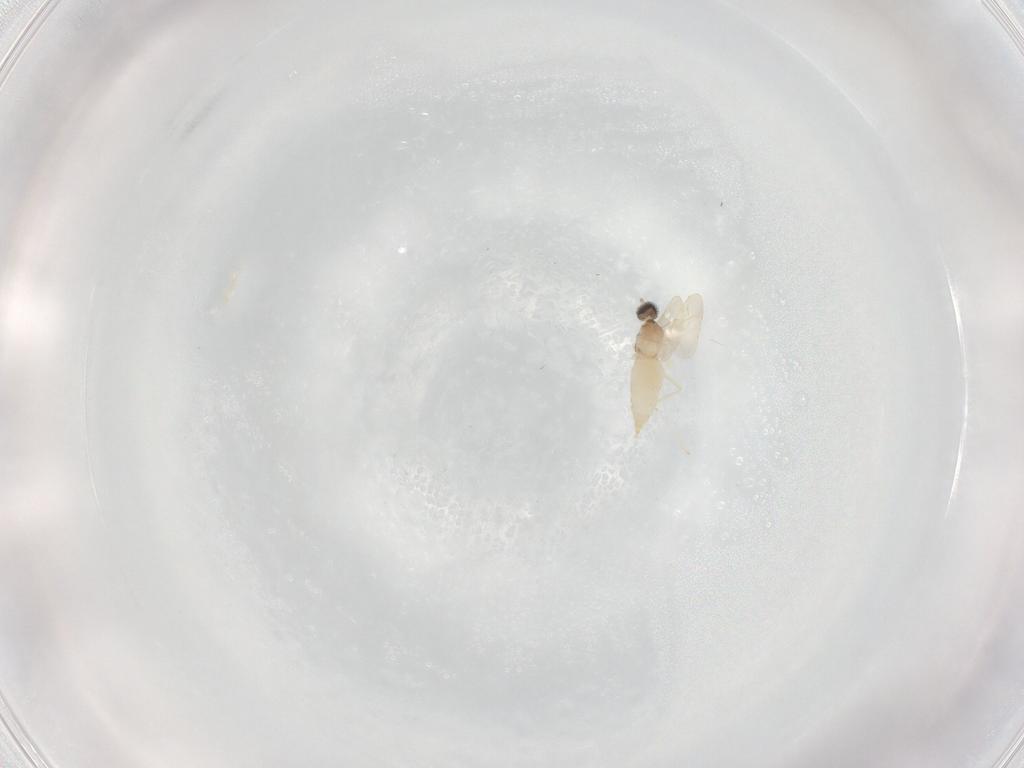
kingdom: Animalia
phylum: Arthropoda
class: Insecta
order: Diptera
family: Cecidomyiidae
